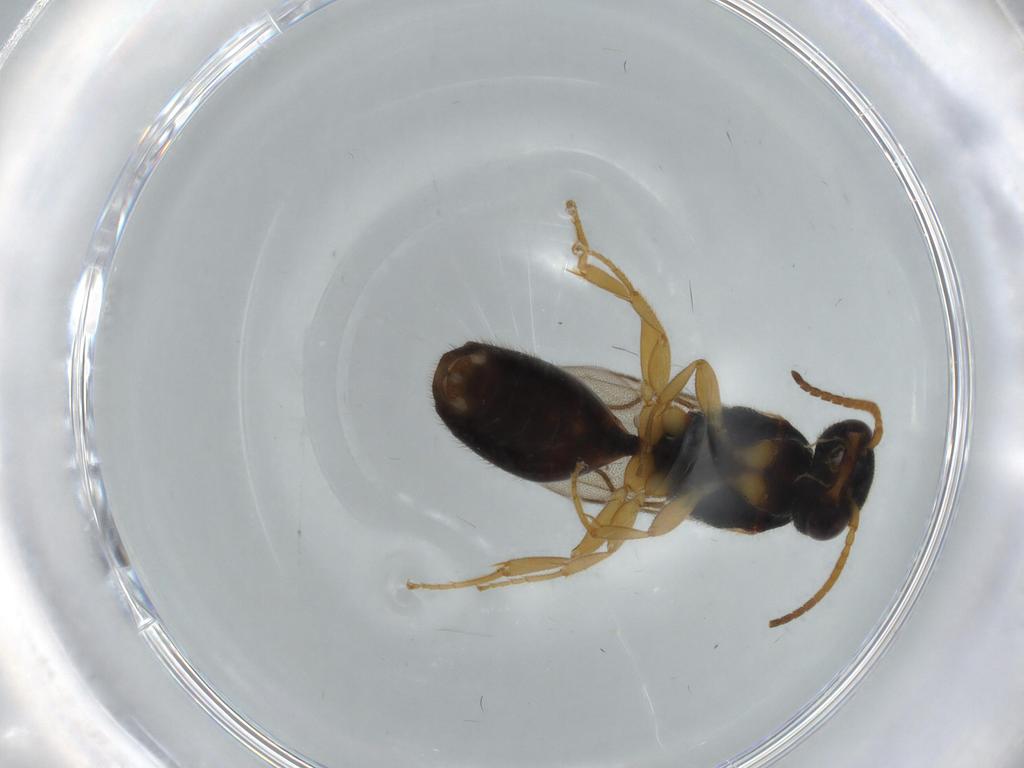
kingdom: Animalia
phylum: Arthropoda
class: Insecta
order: Hymenoptera
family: Bethylidae
